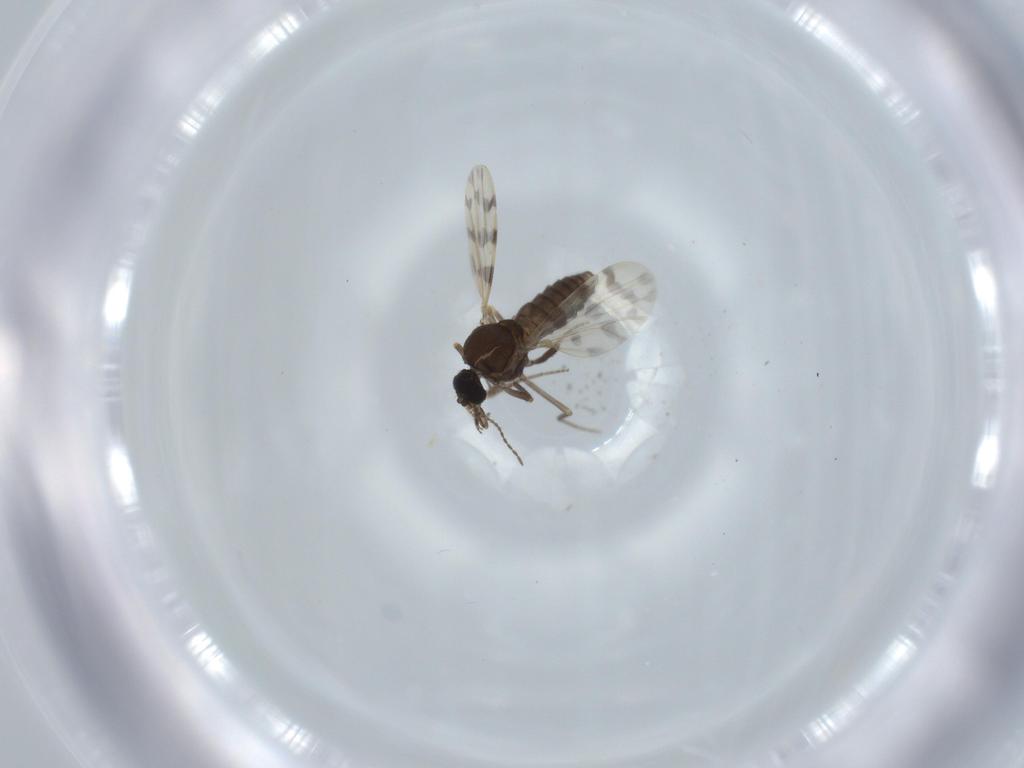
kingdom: Animalia
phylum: Arthropoda
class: Insecta
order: Diptera
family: Ceratopogonidae
